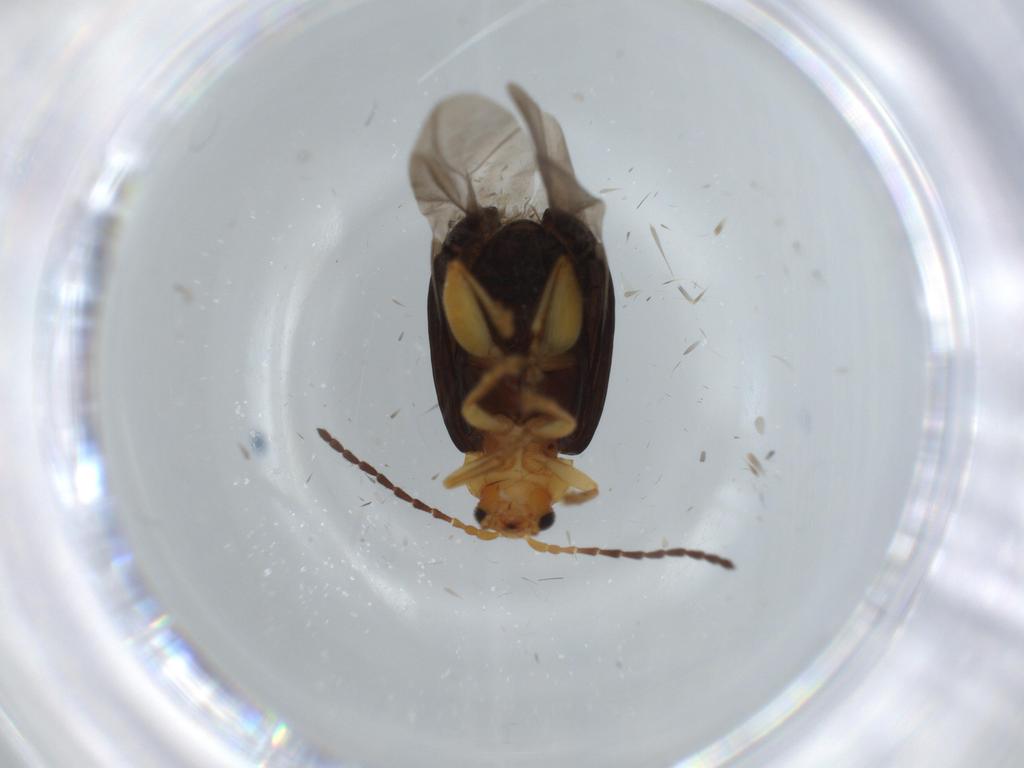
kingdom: Animalia
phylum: Arthropoda
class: Insecta
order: Coleoptera
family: Chrysomelidae
